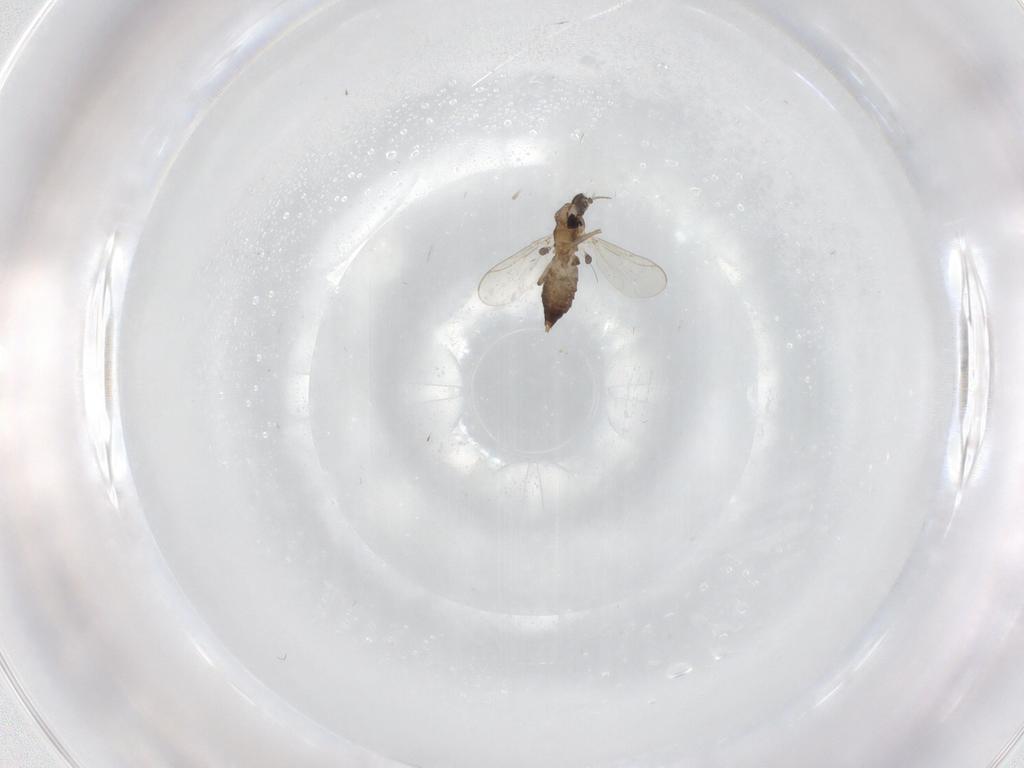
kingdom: Animalia
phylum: Arthropoda
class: Insecta
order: Diptera
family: Chironomidae
